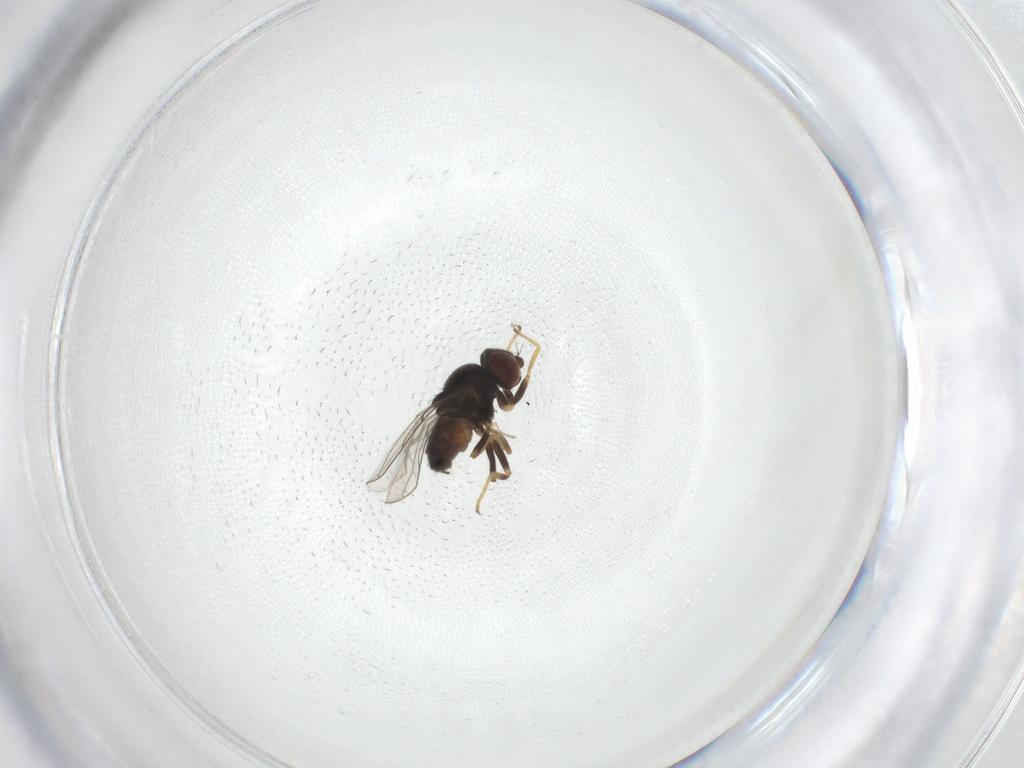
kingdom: Animalia
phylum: Arthropoda
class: Insecta
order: Diptera
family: Chloropidae
